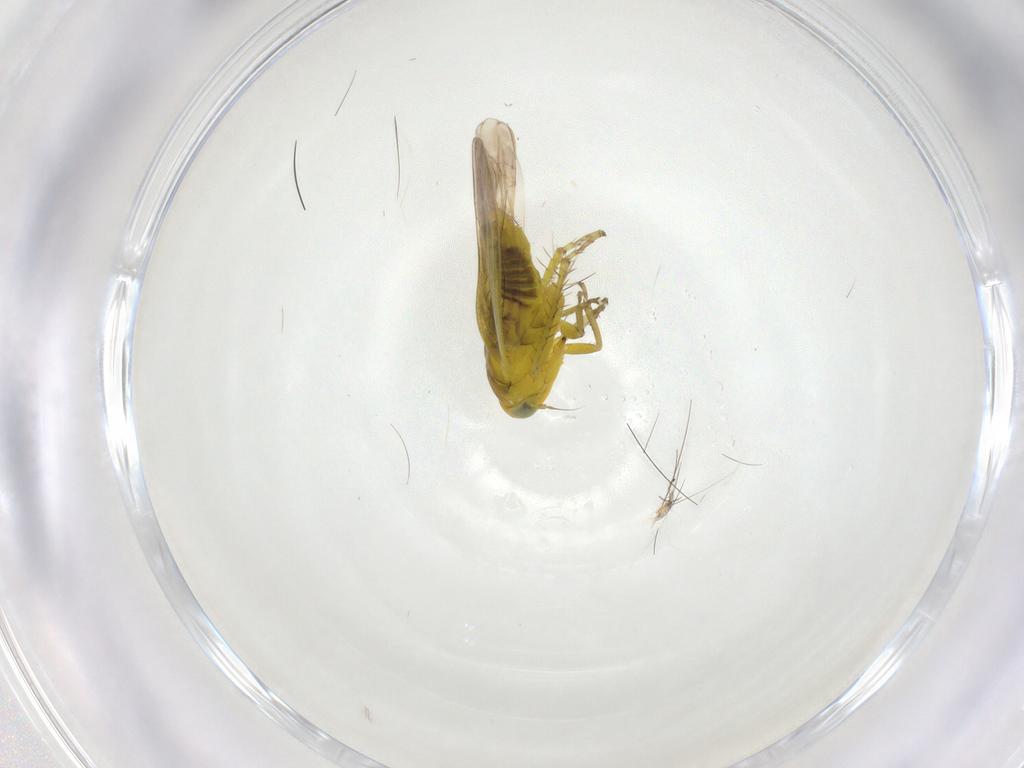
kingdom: Animalia
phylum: Arthropoda
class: Insecta
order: Hemiptera
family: Cicadellidae
